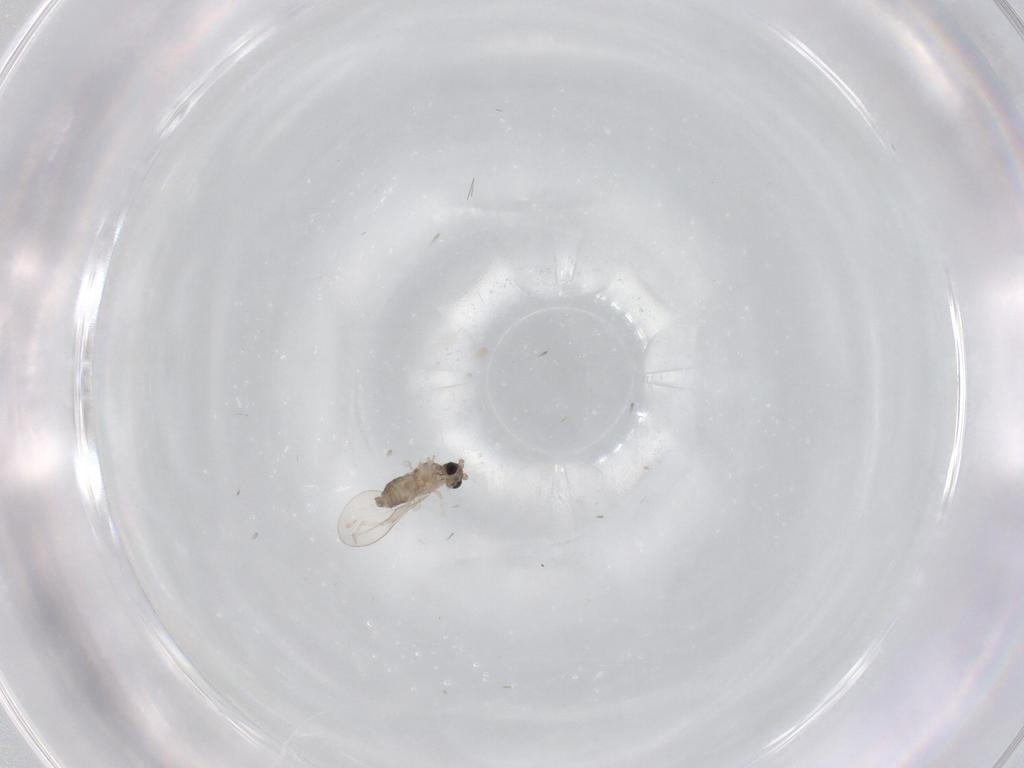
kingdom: Animalia
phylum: Arthropoda
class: Insecta
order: Diptera
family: Cecidomyiidae
